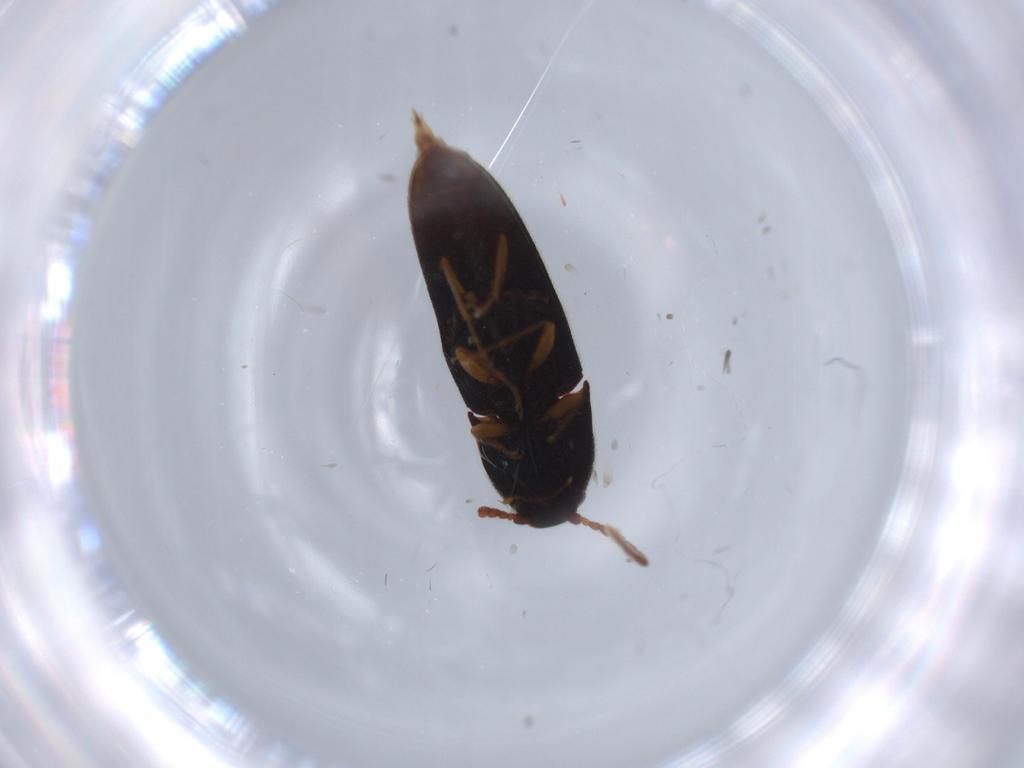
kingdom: Animalia
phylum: Arthropoda
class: Insecta
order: Coleoptera
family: Elateridae
